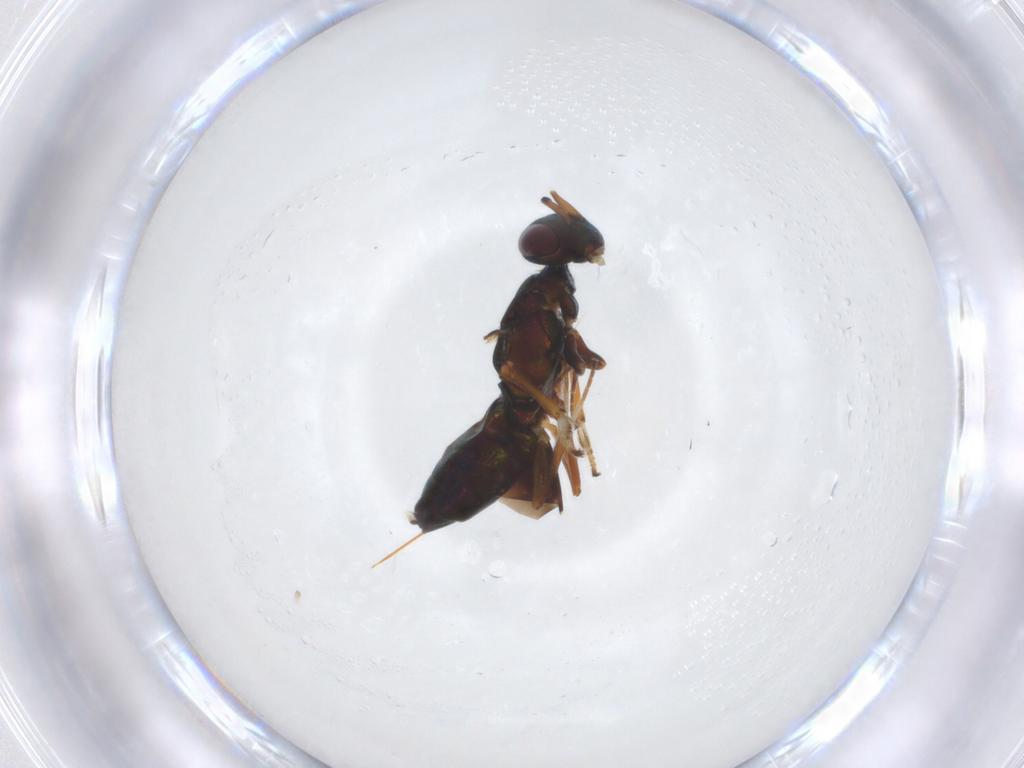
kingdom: Animalia
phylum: Arthropoda
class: Insecta
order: Hymenoptera
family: Eupelmidae
